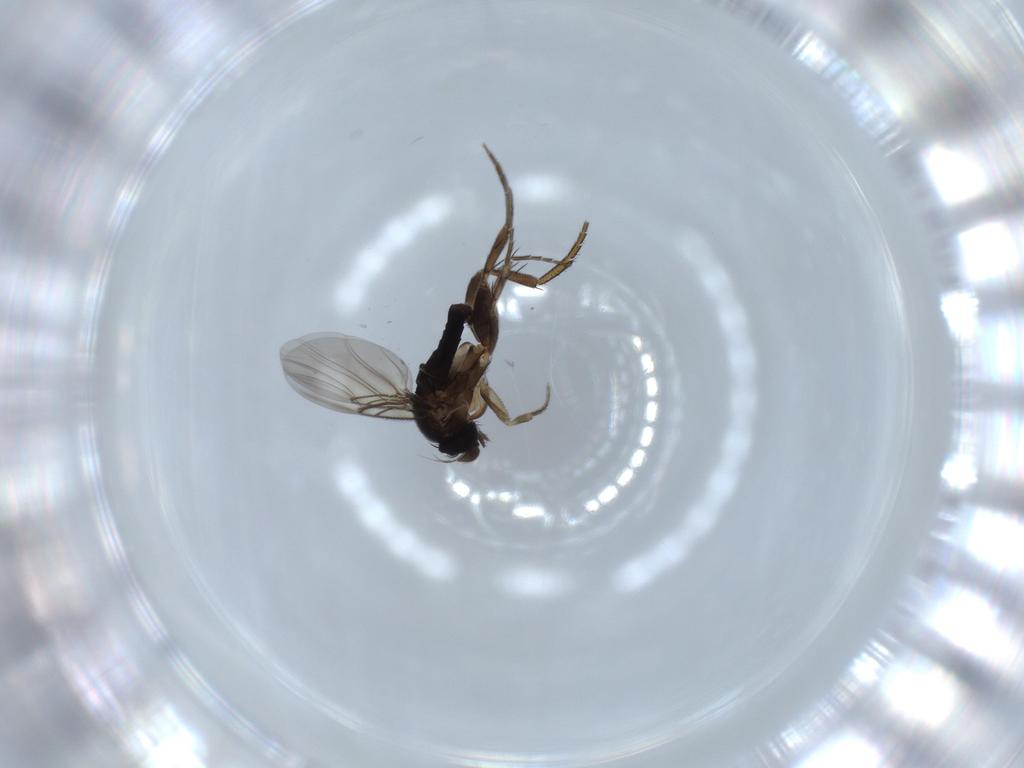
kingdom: Animalia
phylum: Arthropoda
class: Insecta
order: Diptera
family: Phoridae
